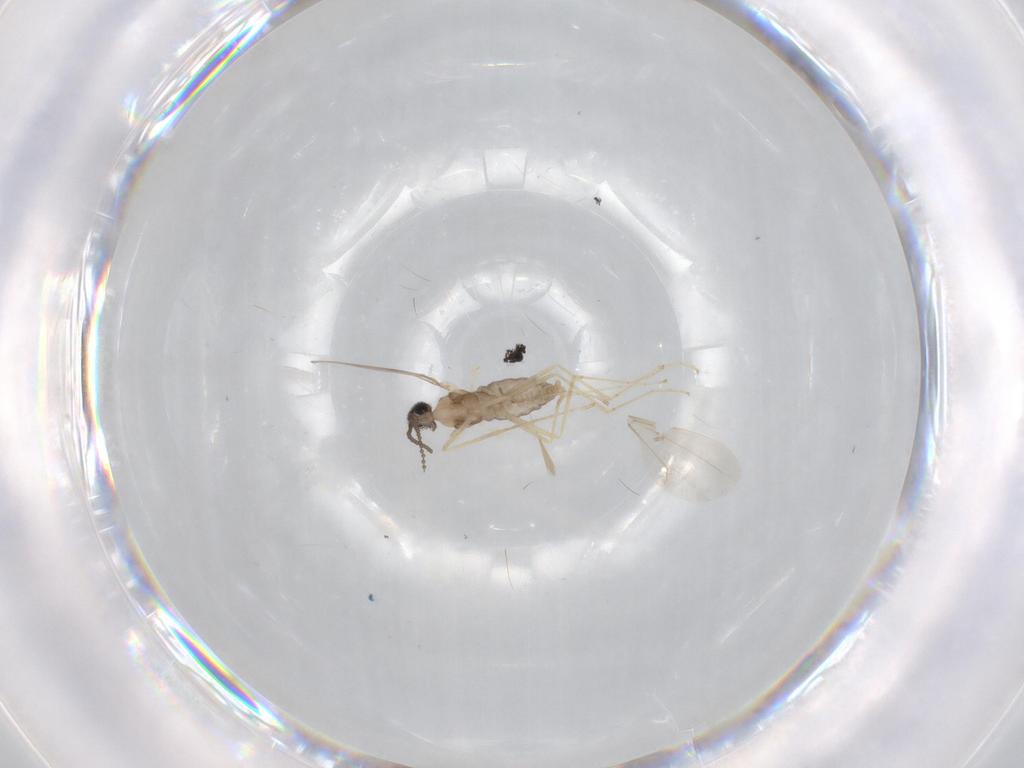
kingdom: Animalia
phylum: Arthropoda
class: Insecta
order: Diptera
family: Cecidomyiidae
